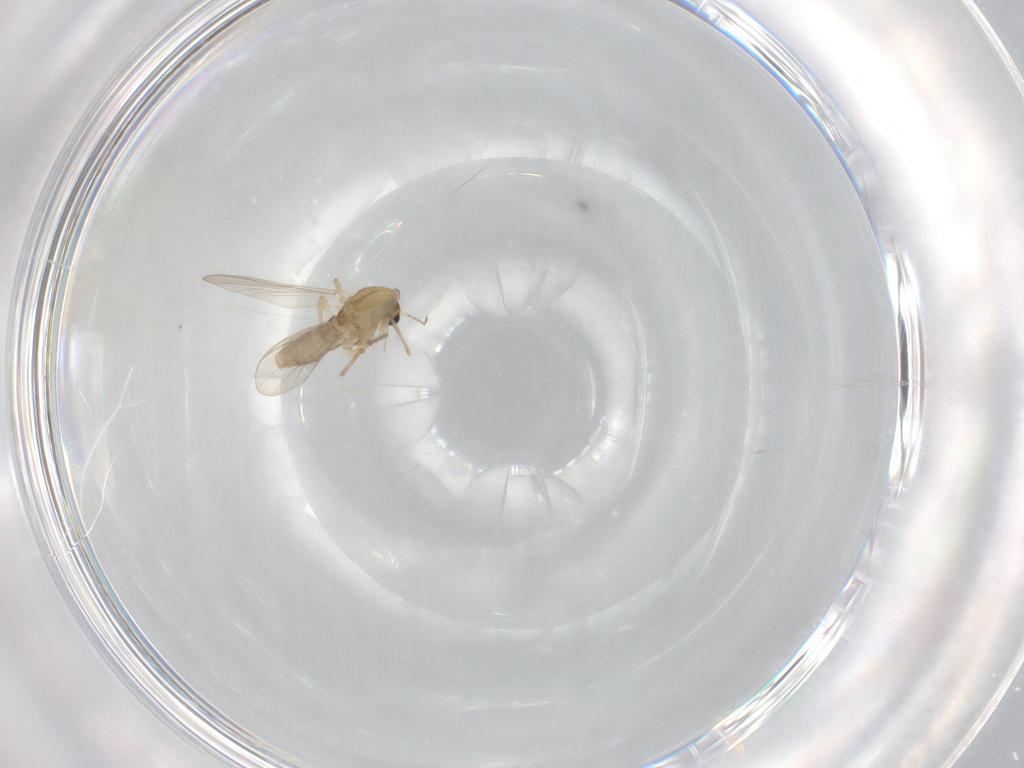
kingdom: Animalia
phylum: Arthropoda
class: Insecta
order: Diptera
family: Chironomidae
